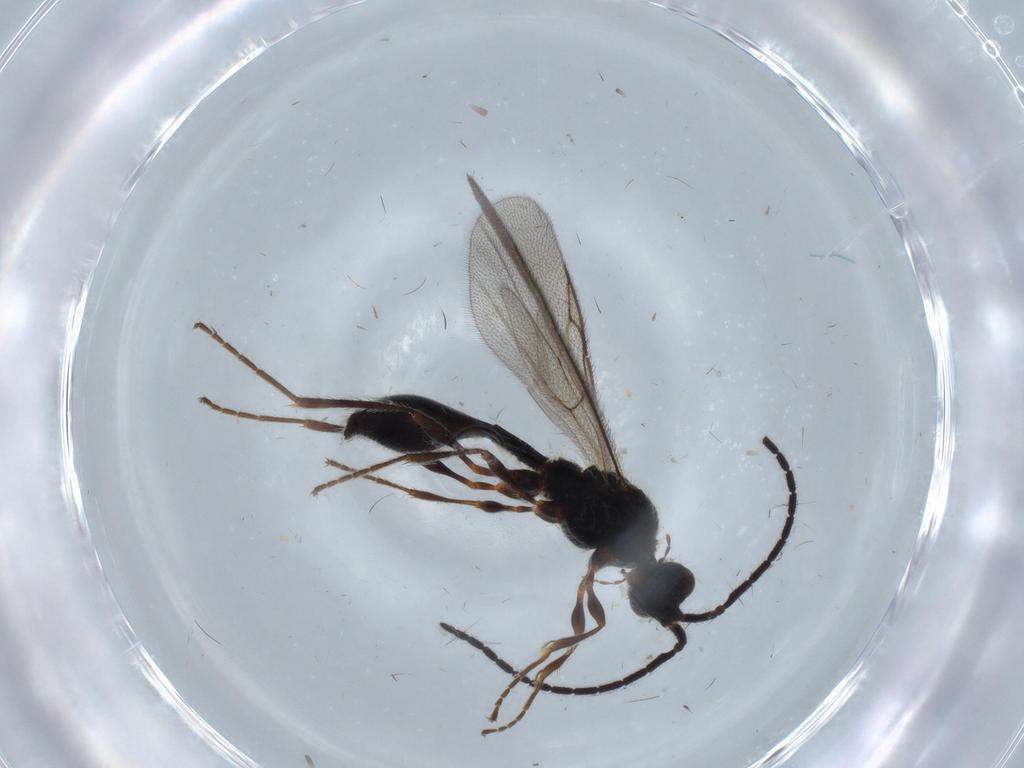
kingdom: Animalia
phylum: Arthropoda
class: Insecta
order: Hymenoptera
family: Diapriidae
